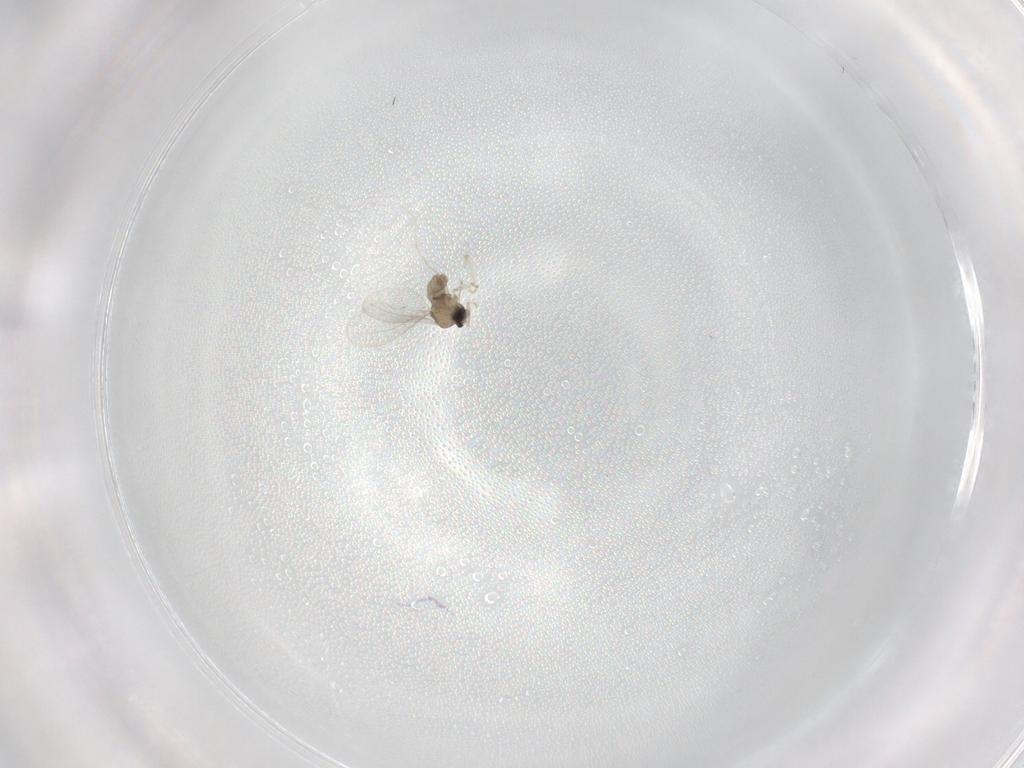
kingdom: Animalia
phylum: Arthropoda
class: Insecta
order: Diptera
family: Cecidomyiidae
